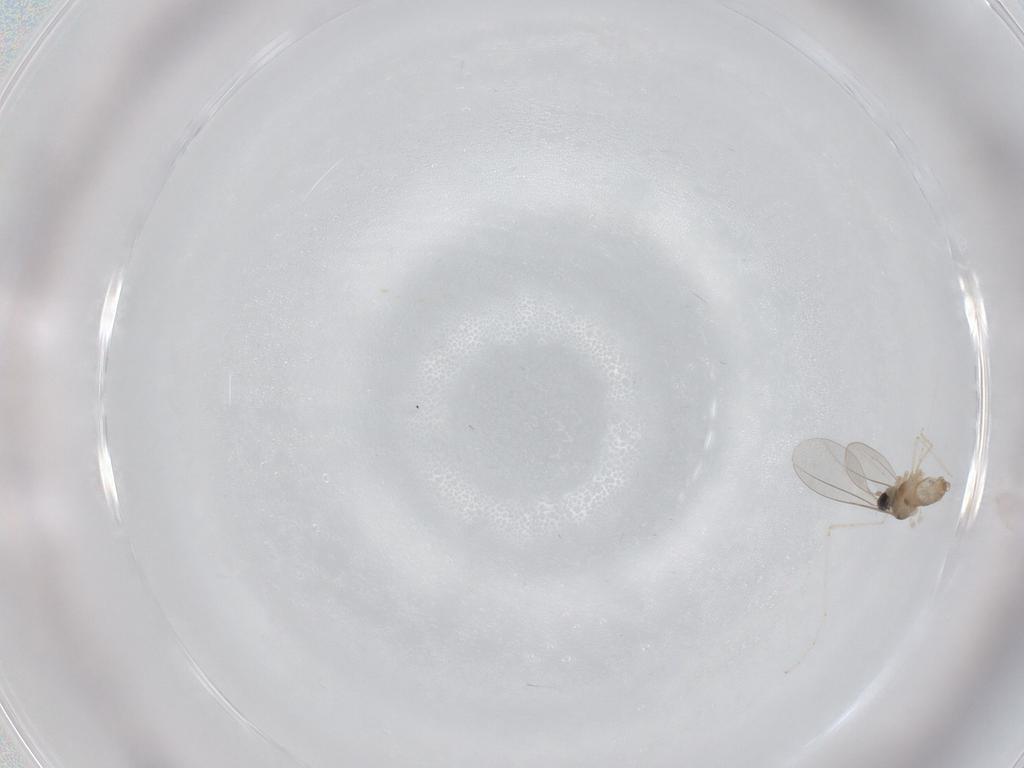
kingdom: Animalia
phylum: Arthropoda
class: Insecta
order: Diptera
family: Cecidomyiidae
